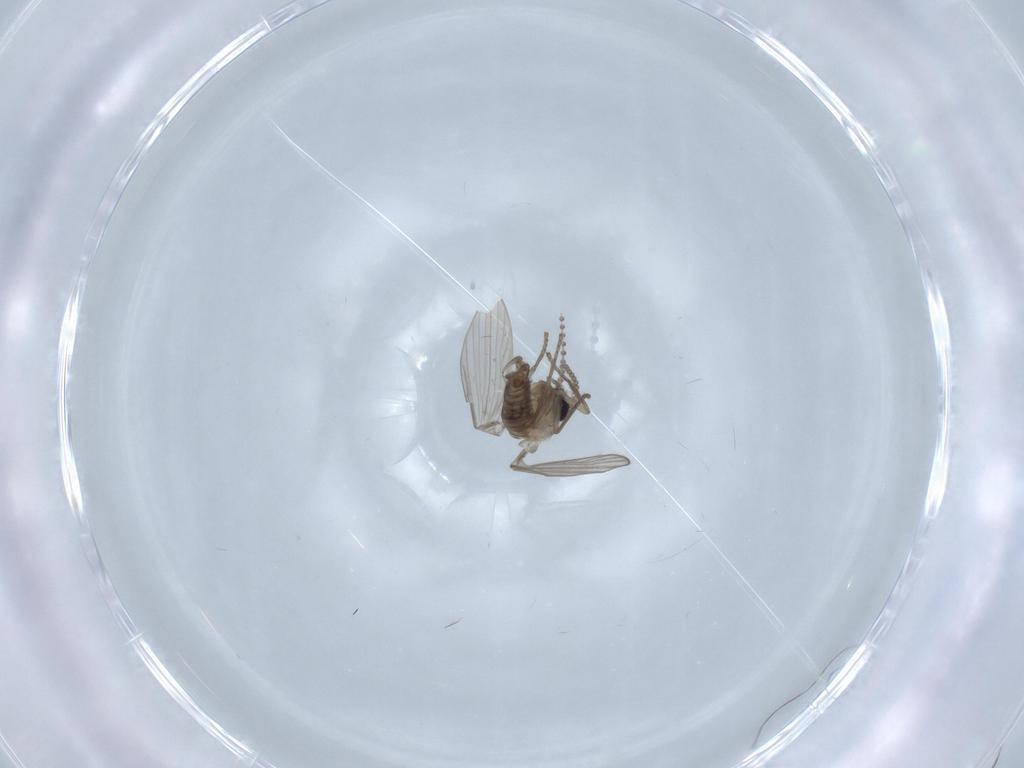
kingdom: Animalia
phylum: Arthropoda
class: Insecta
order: Diptera
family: Psychodidae
